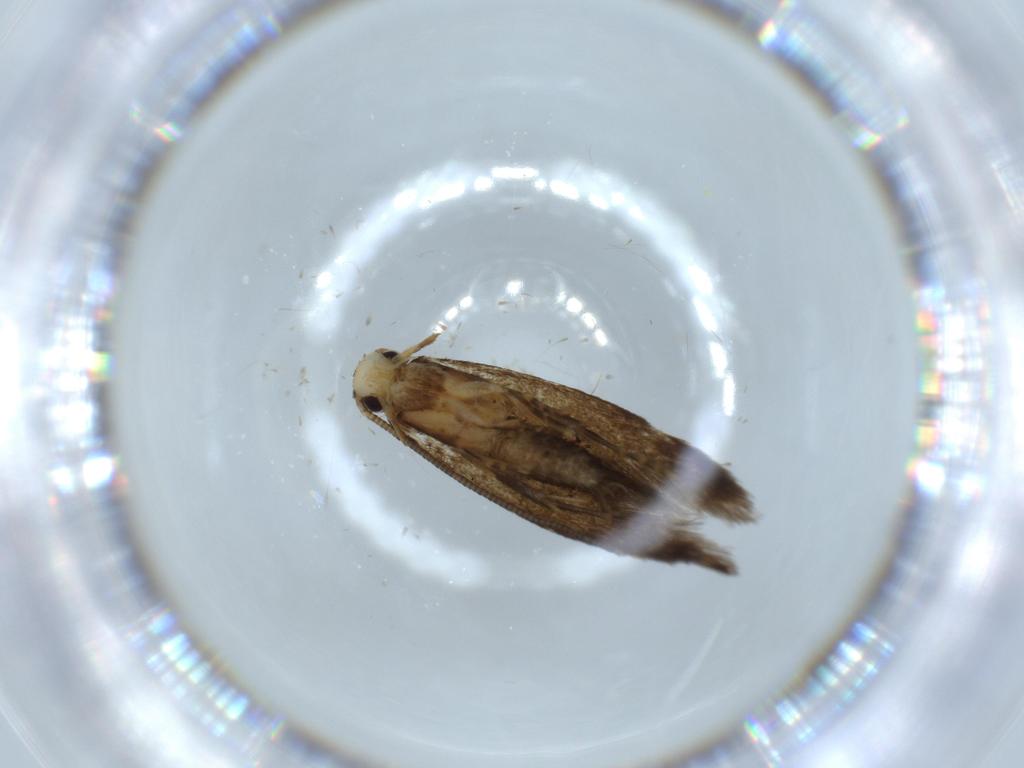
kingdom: Animalia
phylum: Arthropoda
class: Insecta
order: Lepidoptera
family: Tineidae
